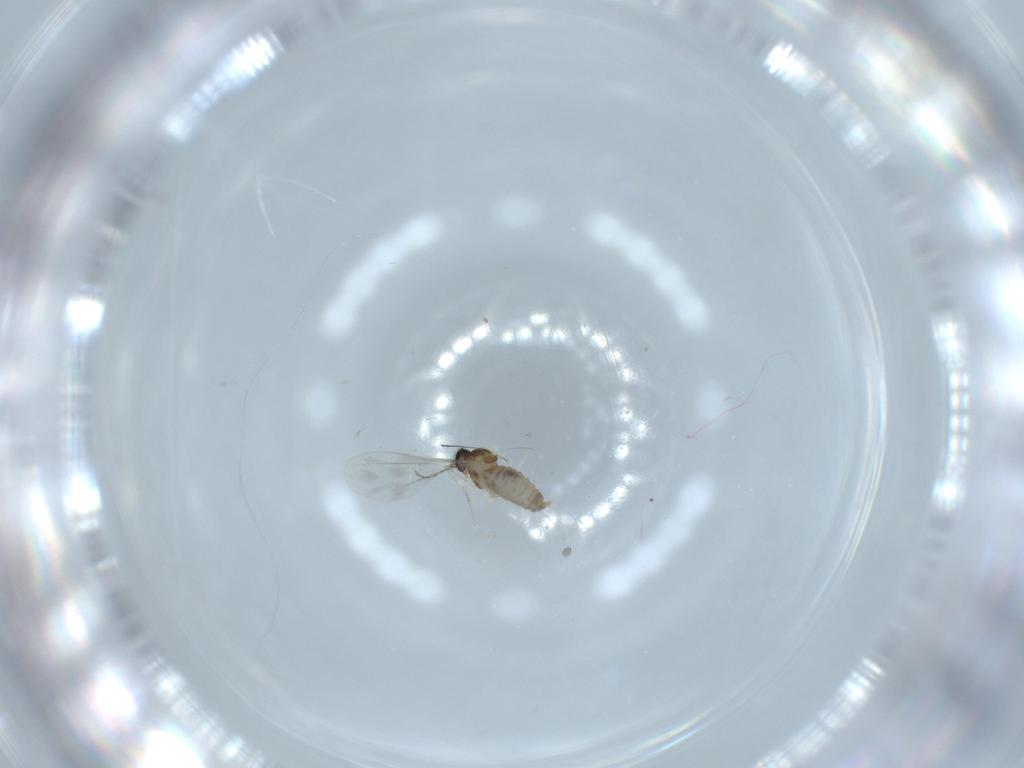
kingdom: Animalia
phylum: Arthropoda
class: Insecta
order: Diptera
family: Cecidomyiidae
